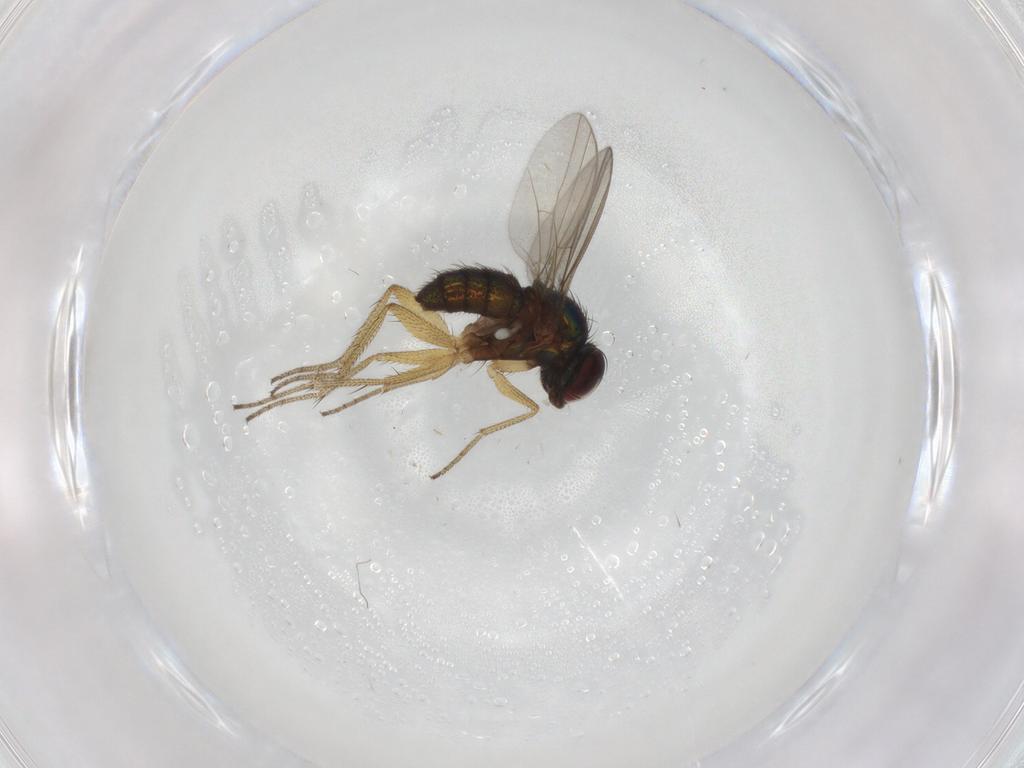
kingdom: Animalia
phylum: Arthropoda
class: Insecta
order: Diptera
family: Dolichopodidae
